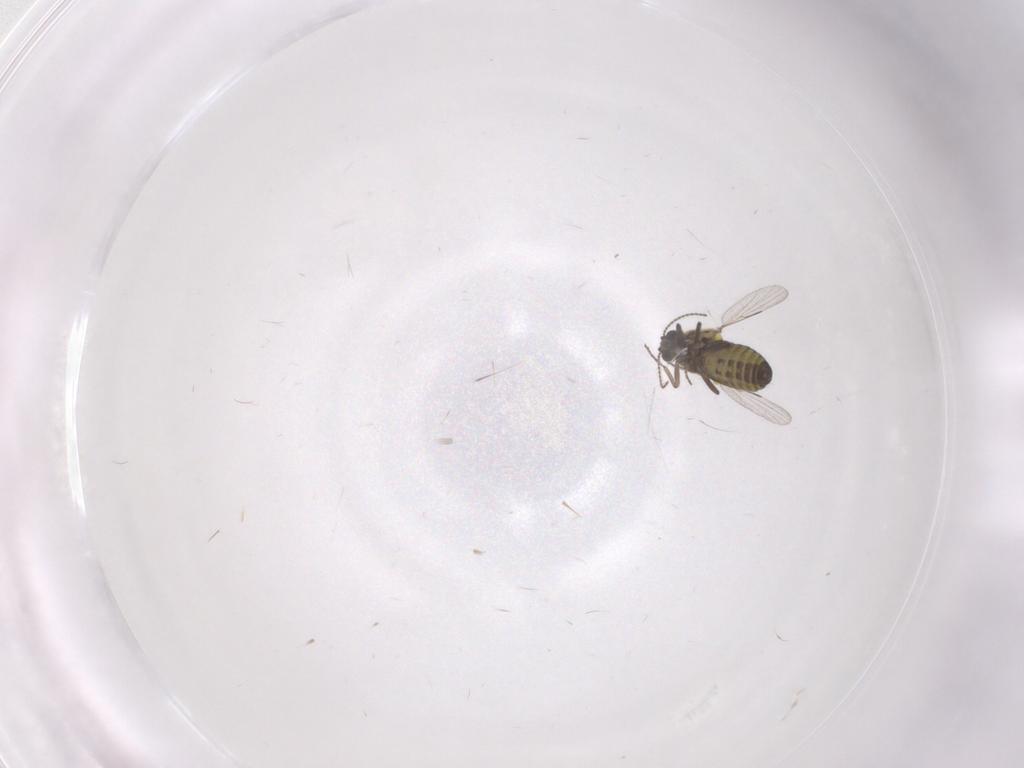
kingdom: Animalia
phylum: Arthropoda
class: Insecta
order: Diptera
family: Ceratopogonidae
